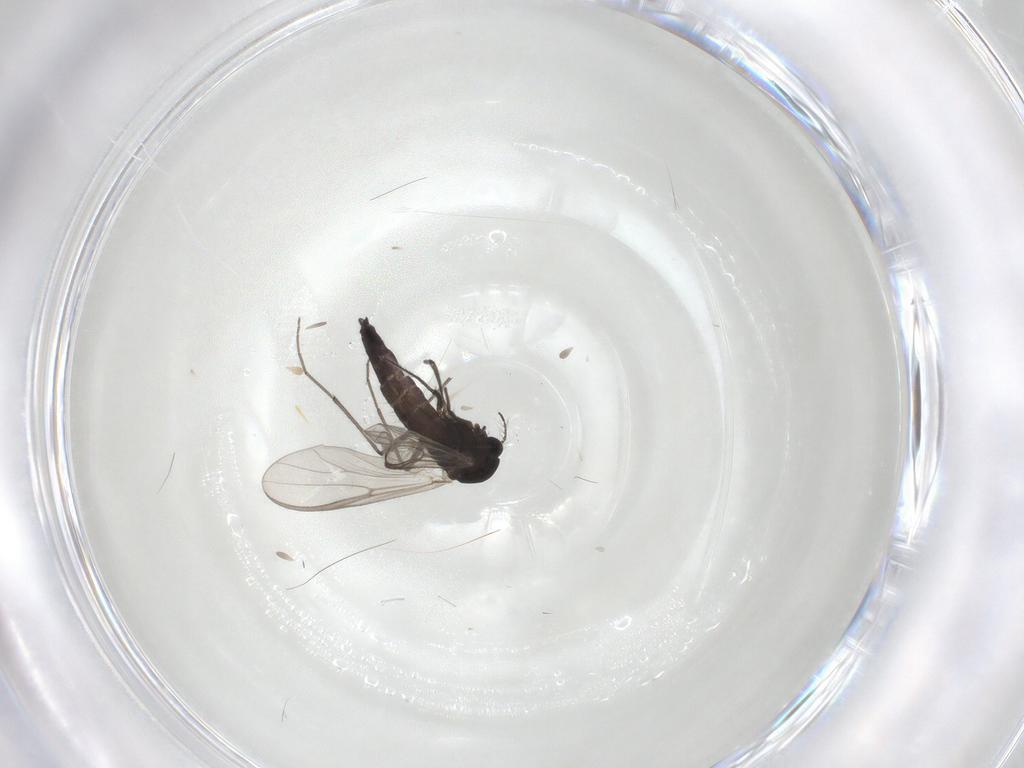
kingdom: Animalia
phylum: Arthropoda
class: Insecta
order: Diptera
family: Chironomidae
